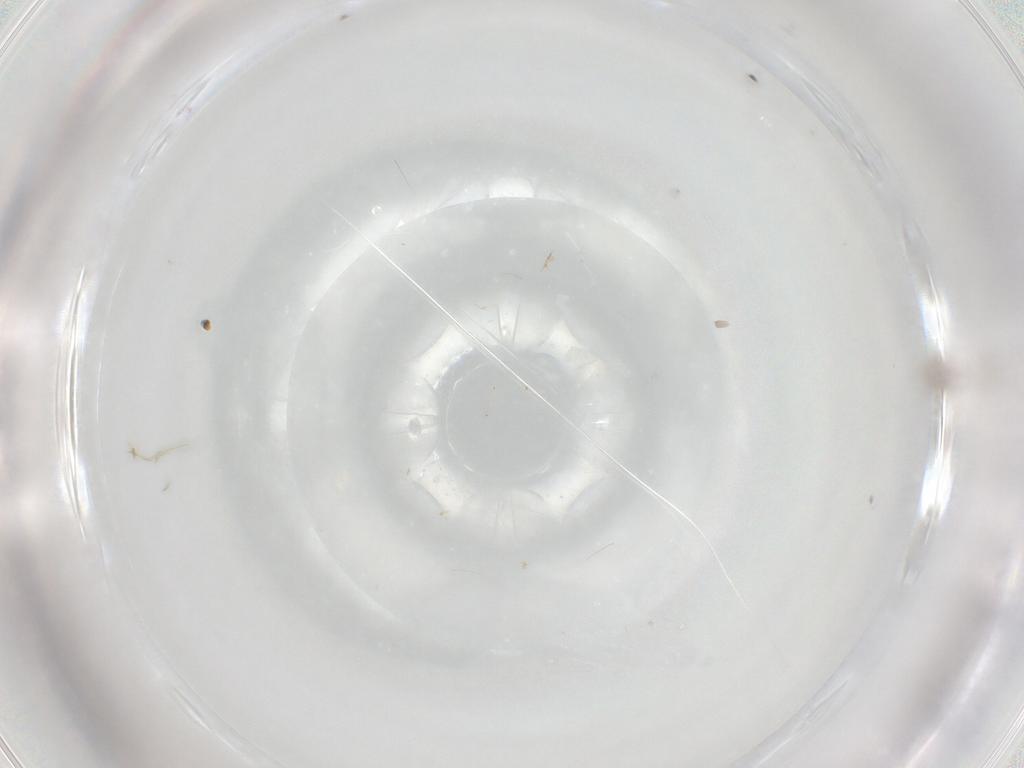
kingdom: Animalia
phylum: Arthropoda
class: Insecta
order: Hymenoptera
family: Aphelinidae
